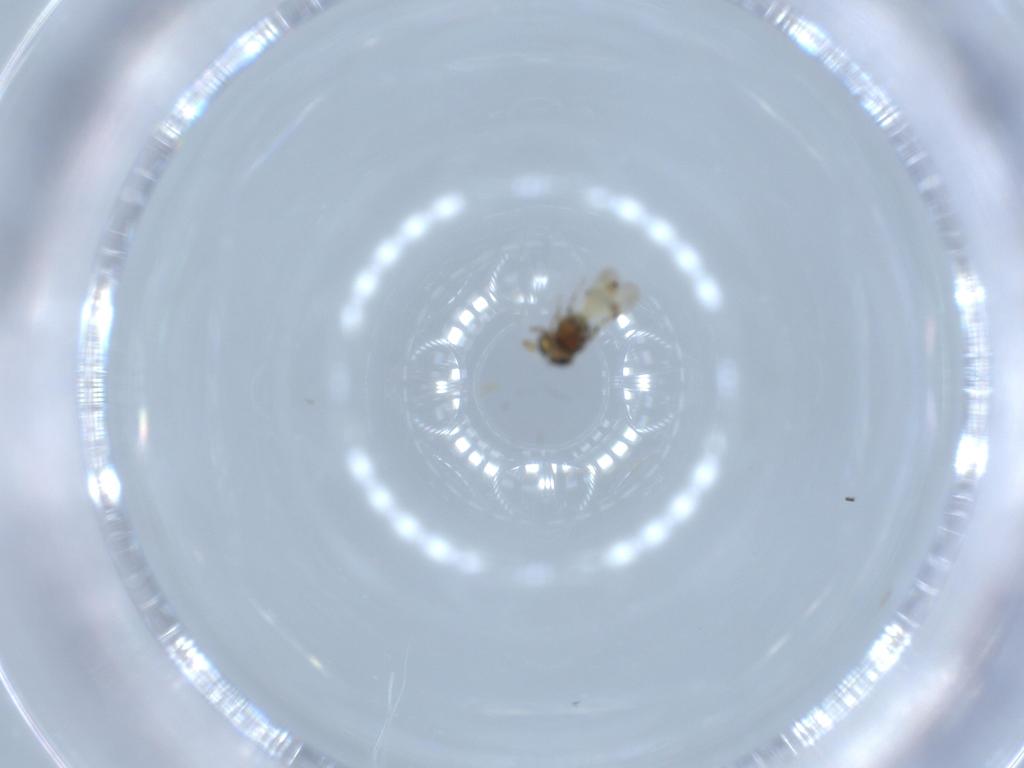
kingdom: Animalia
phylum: Arthropoda
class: Insecta
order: Hymenoptera
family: Scelionidae
